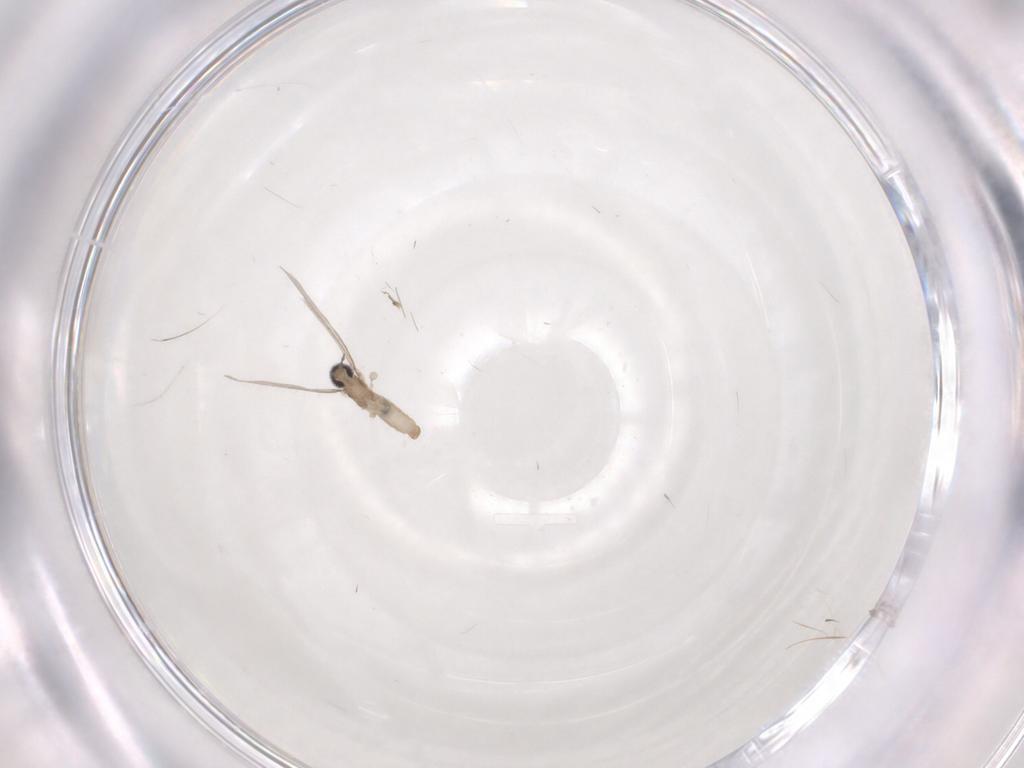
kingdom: Animalia
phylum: Arthropoda
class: Insecta
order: Diptera
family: Cecidomyiidae
